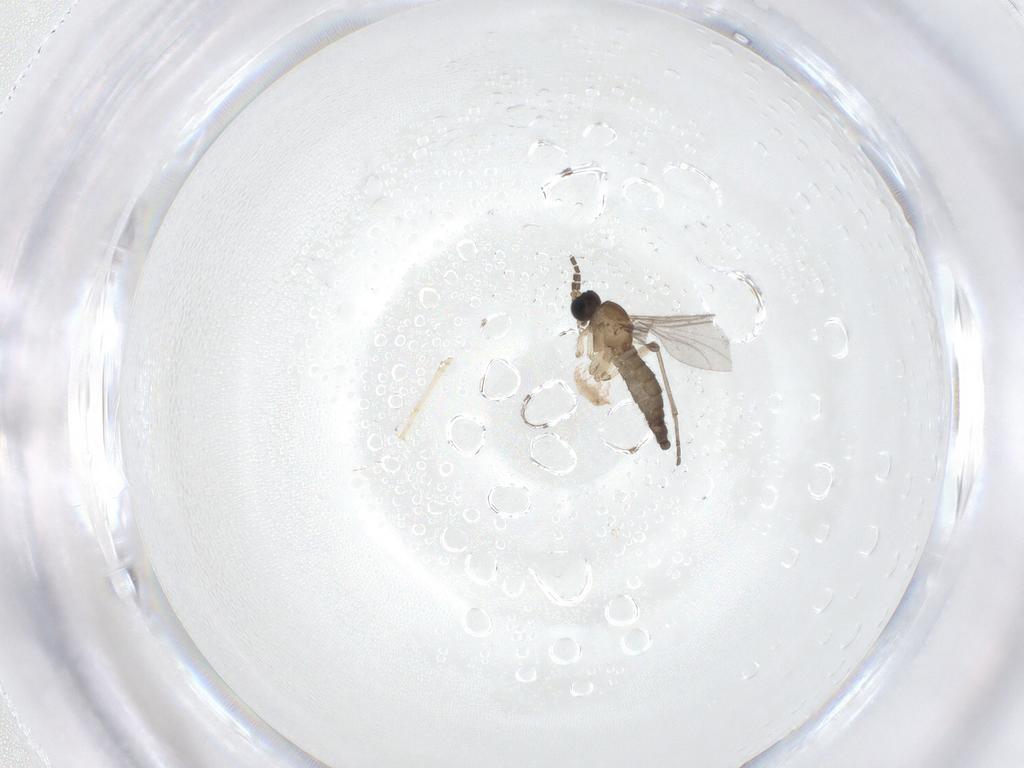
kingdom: Animalia
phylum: Arthropoda
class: Insecta
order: Diptera
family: Sciaridae
